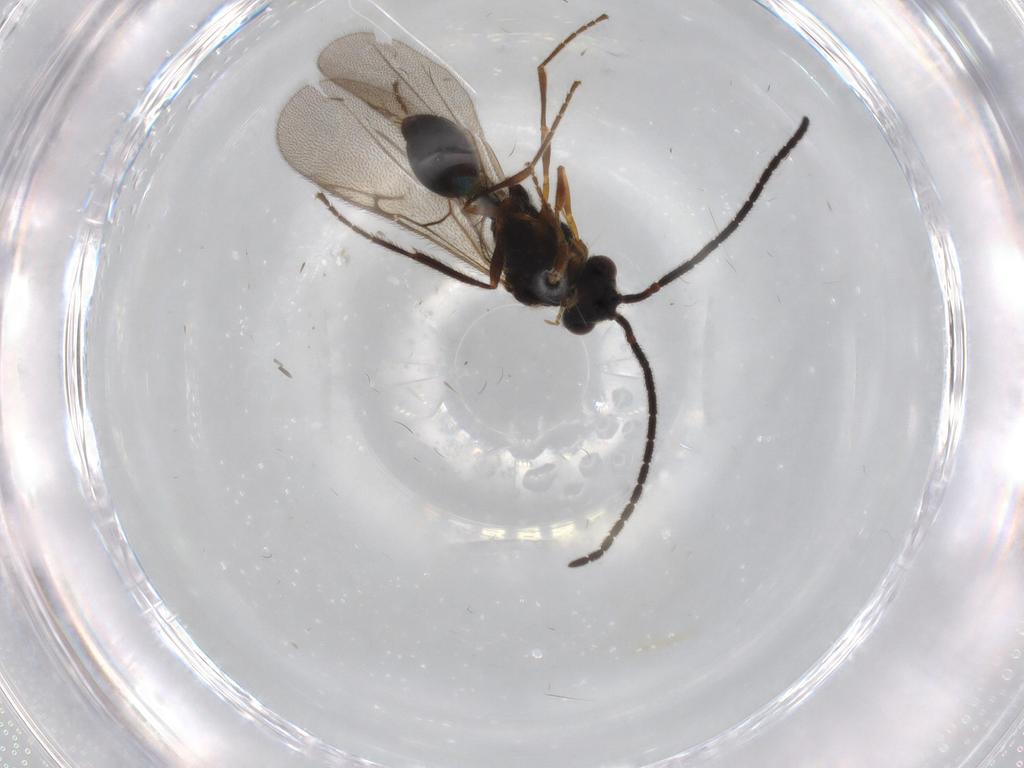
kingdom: Animalia
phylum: Arthropoda
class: Insecta
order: Hymenoptera
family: Diapriidae
